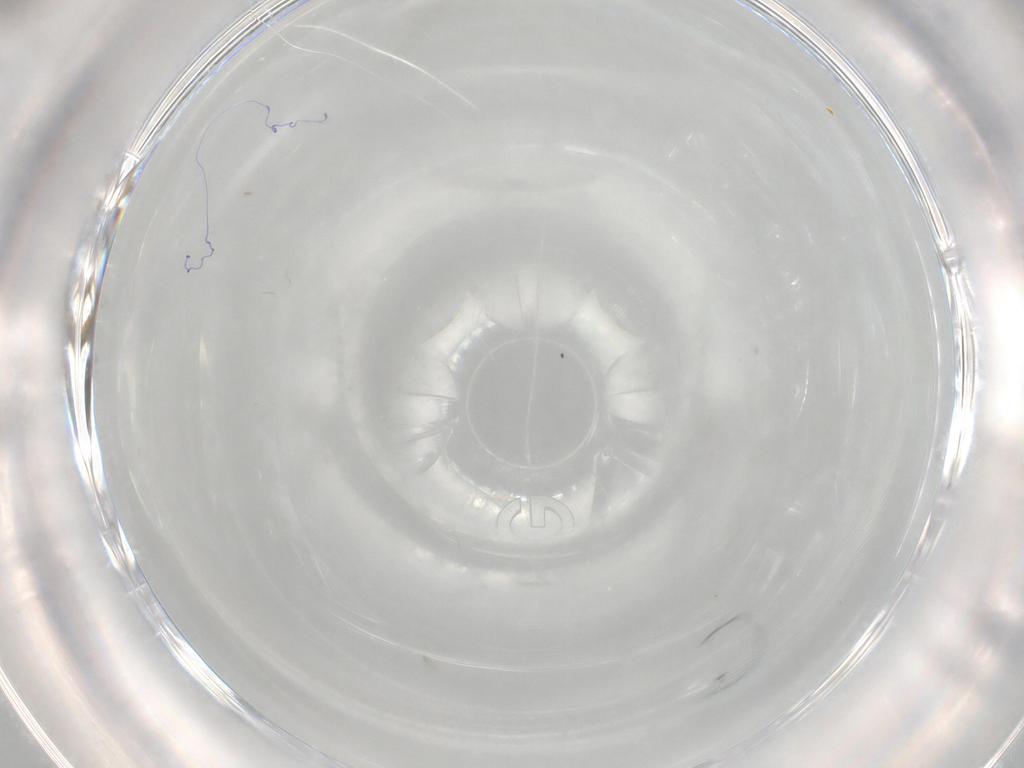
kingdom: Animalia
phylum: Arthropoda
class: Insecta
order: Diptera
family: Cecidomyiidae
